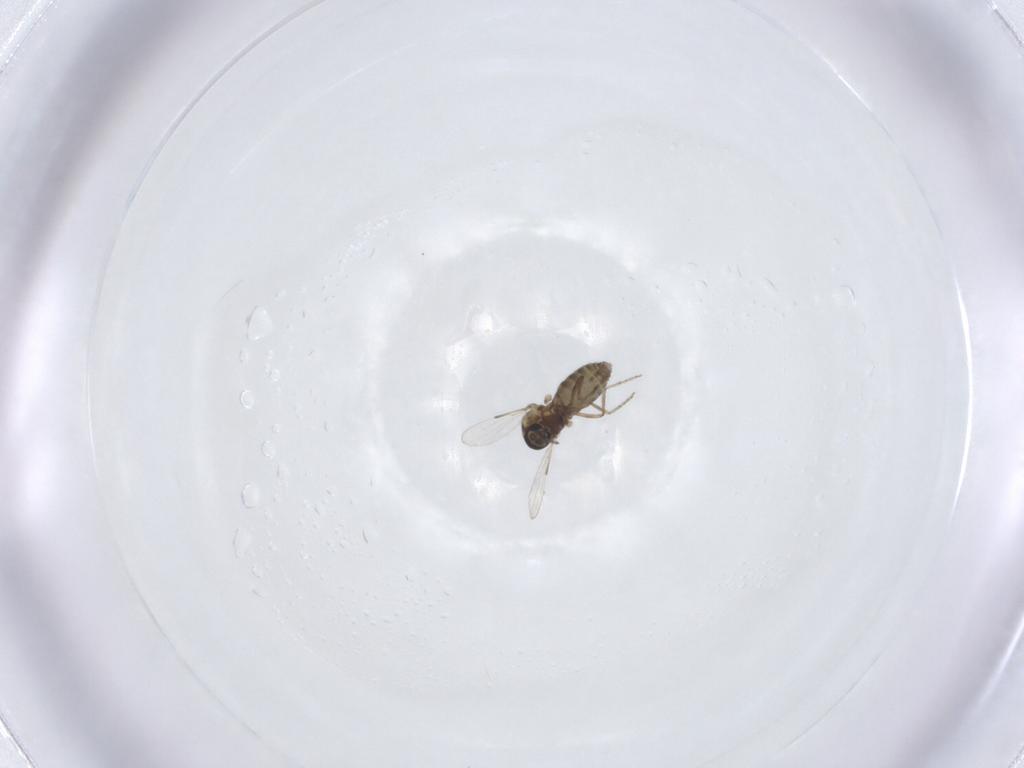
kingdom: Animalia
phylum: Arthropoda
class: Insecta
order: Diptera
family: Ceratopogonidae
